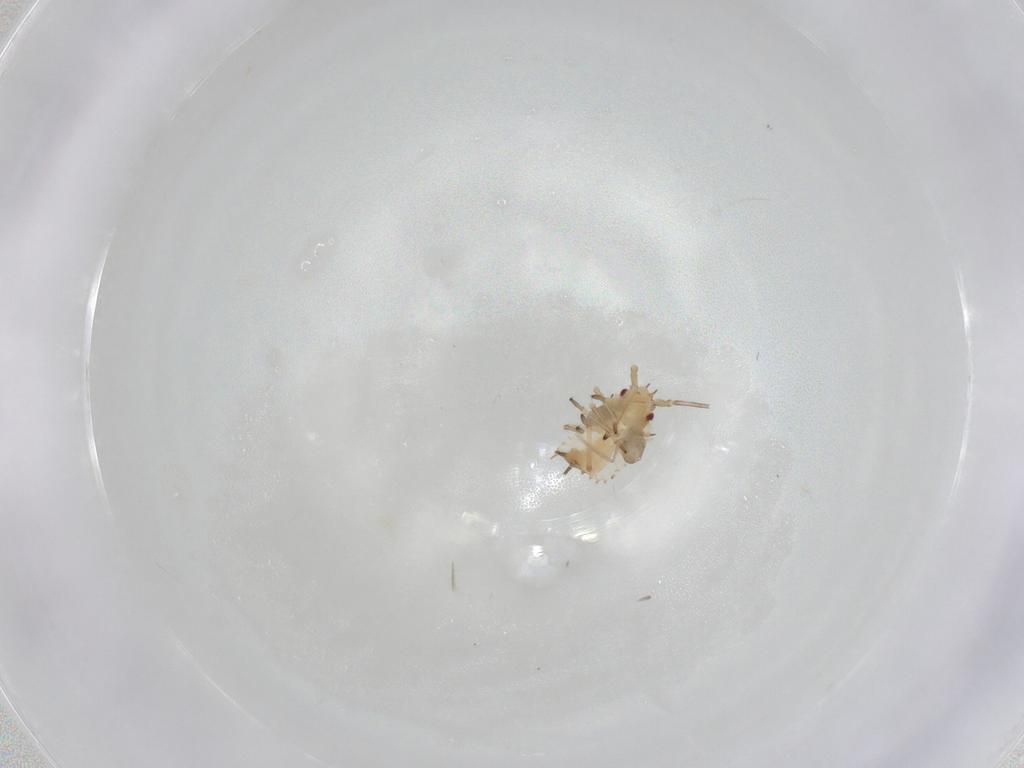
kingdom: Animalia
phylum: Arthropoda
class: Insecta
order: Hemiptera
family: Tingidae
